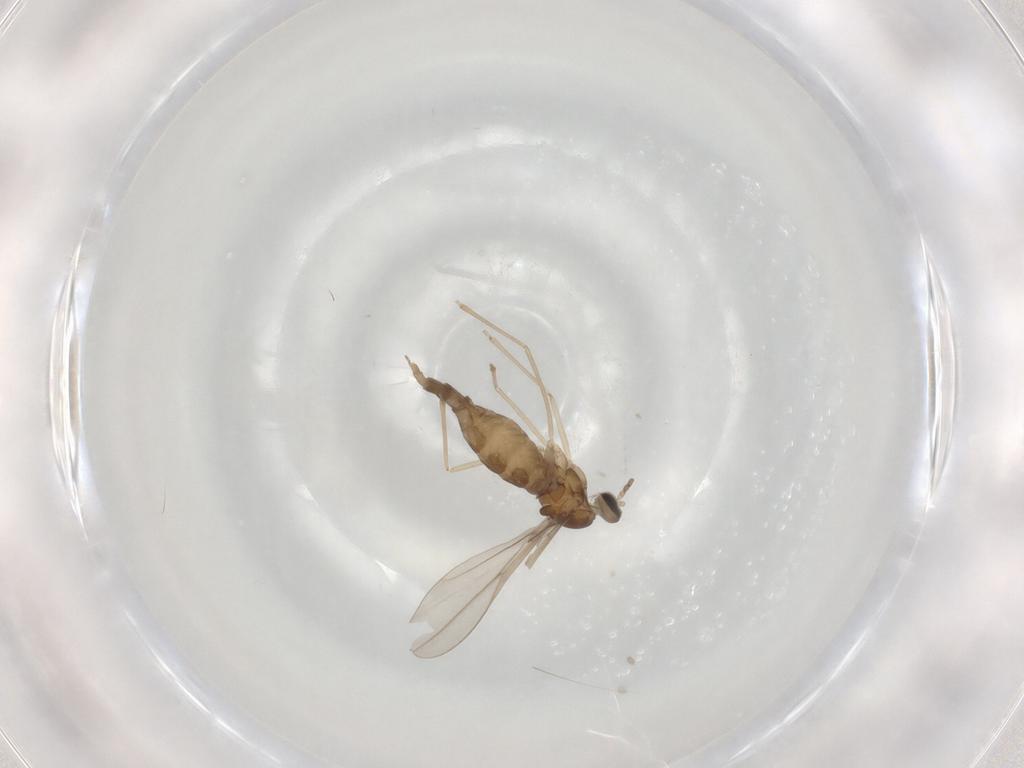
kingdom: Animalia
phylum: Arthropoda
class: Insecta
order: Diptera
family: Cecidomyiidae
